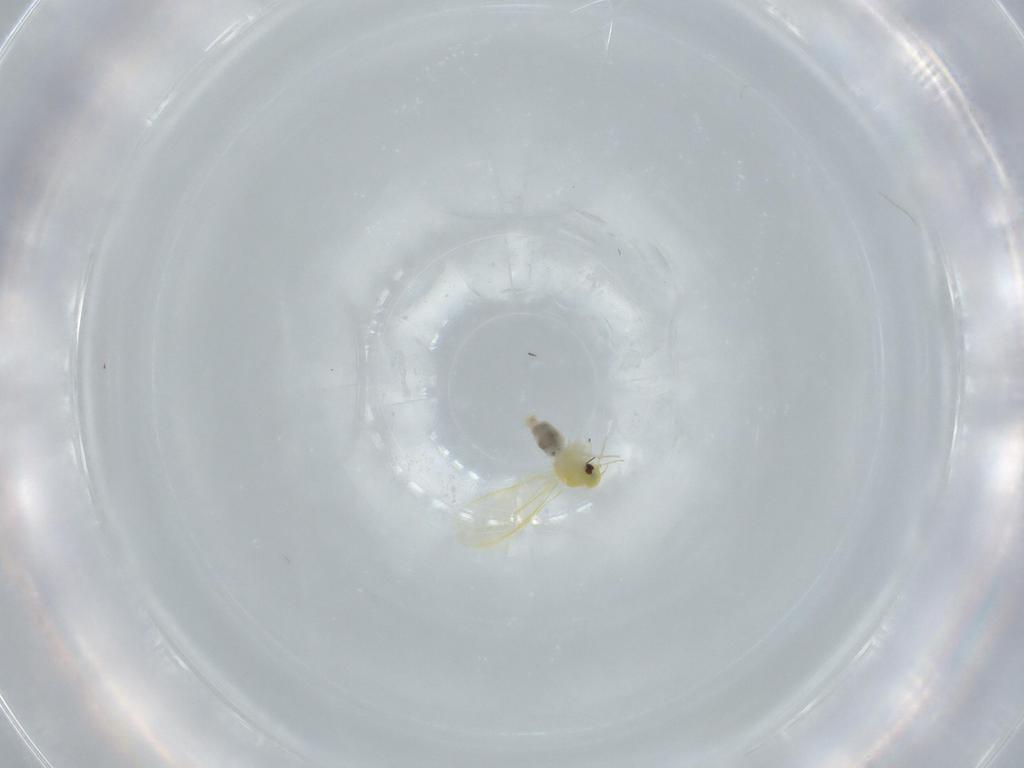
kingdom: Animalia
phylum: Arthropoda
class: Insecta
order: Hemiptera
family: Aleyrodidae
